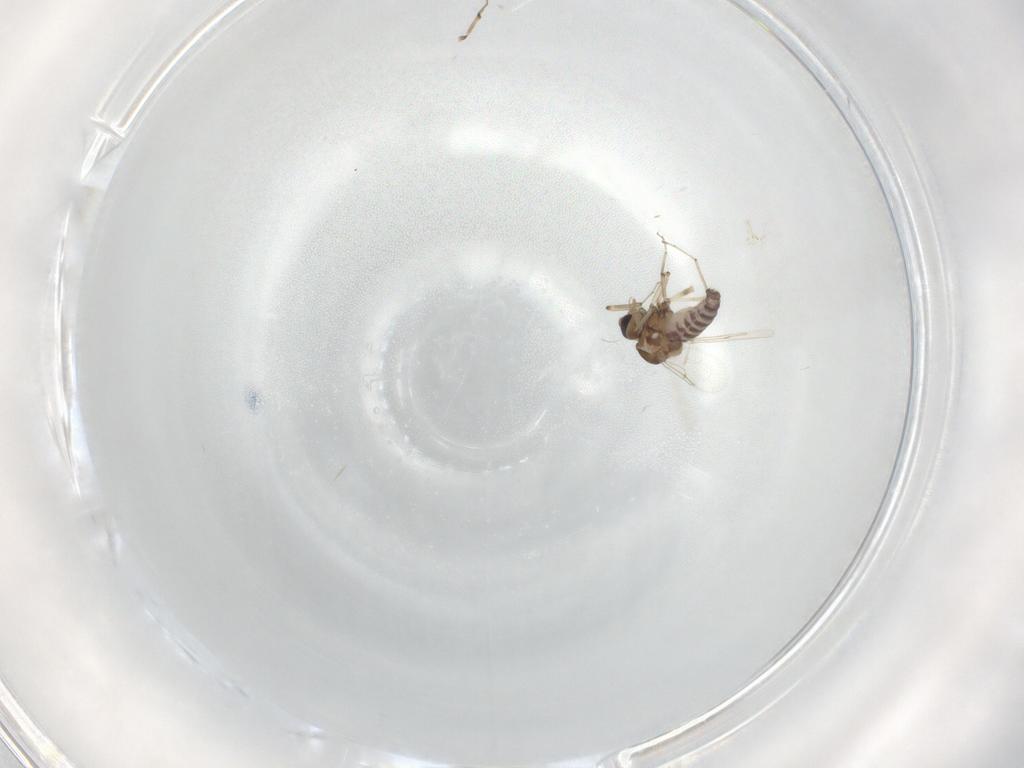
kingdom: Animalia
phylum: Arthropoda
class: Insecta
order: Diptera
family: Ceratopogonidae
